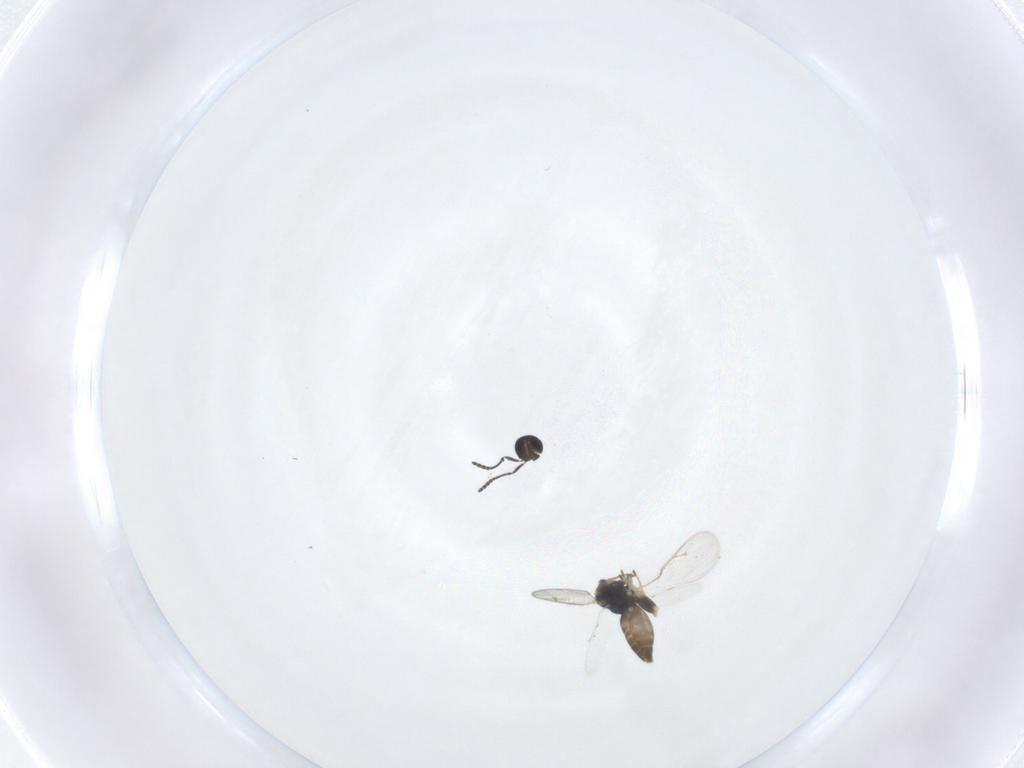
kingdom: Animalia
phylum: Arthropoda
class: Insecta
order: Hymenoptera
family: Scelionidae
